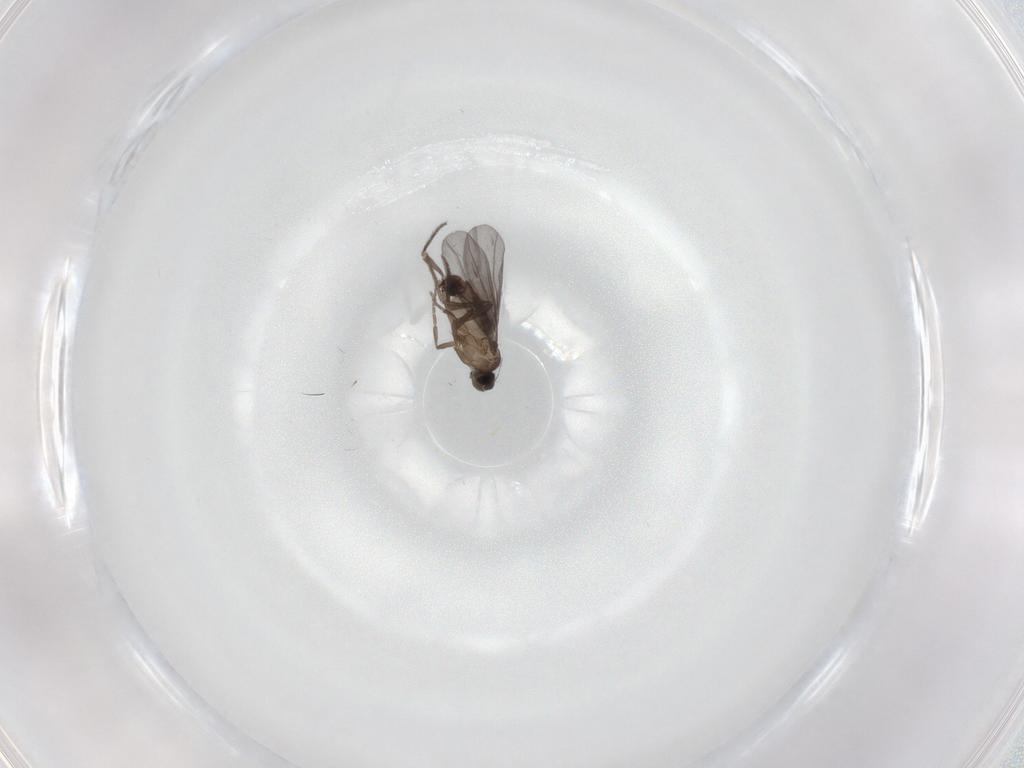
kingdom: Animalia
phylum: Arthropoda
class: Insecta
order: Diptera
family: Phoridae
